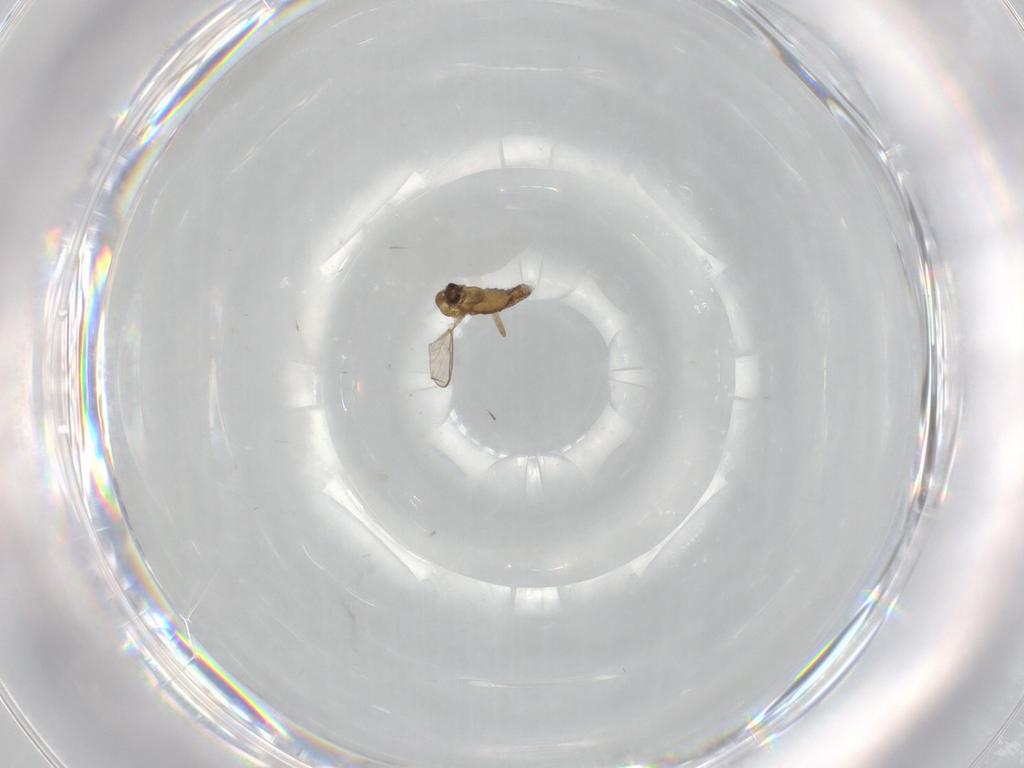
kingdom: Animalia
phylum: Arthropoda
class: Insecta
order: Diptera
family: Chironomidae
